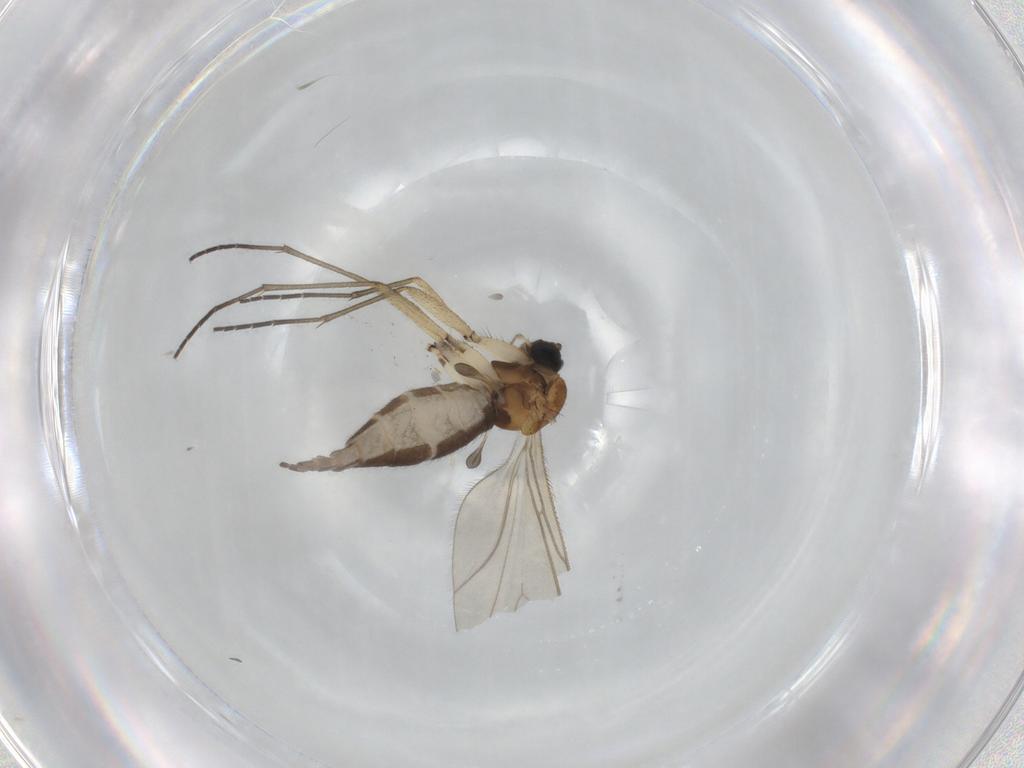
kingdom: Animalia
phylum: Arthropoda
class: Insecta
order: Diptera
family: Sciaridae
